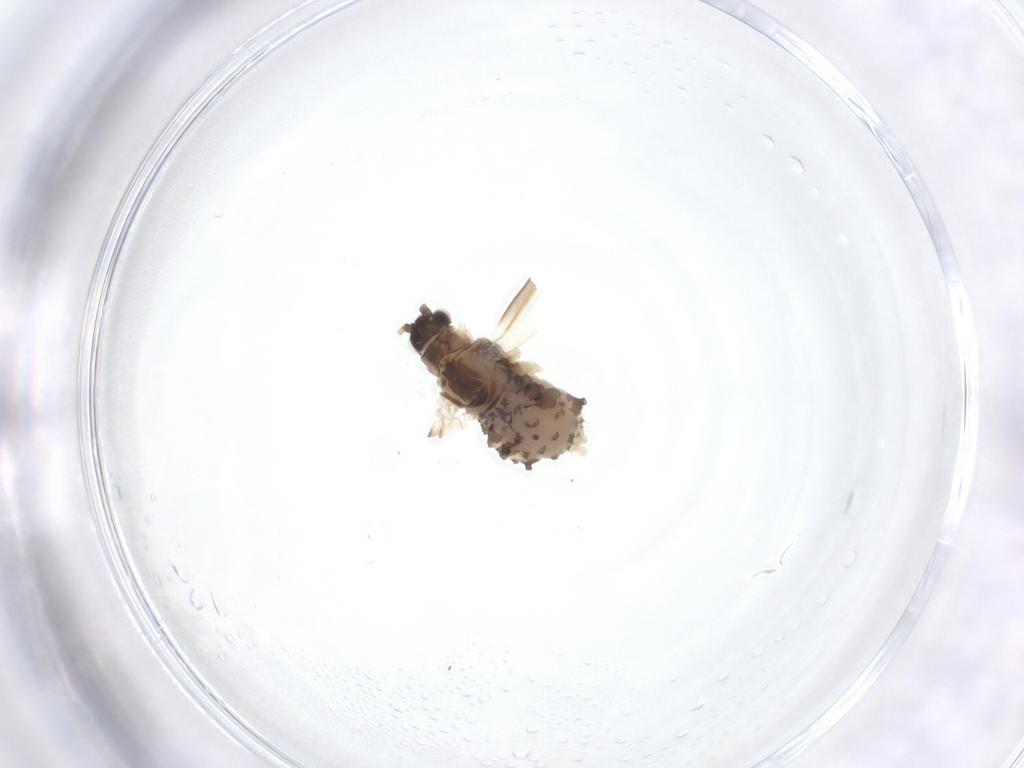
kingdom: Animalia
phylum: Arthropoda
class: Insecta
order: Hemiptera
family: Aphididae
